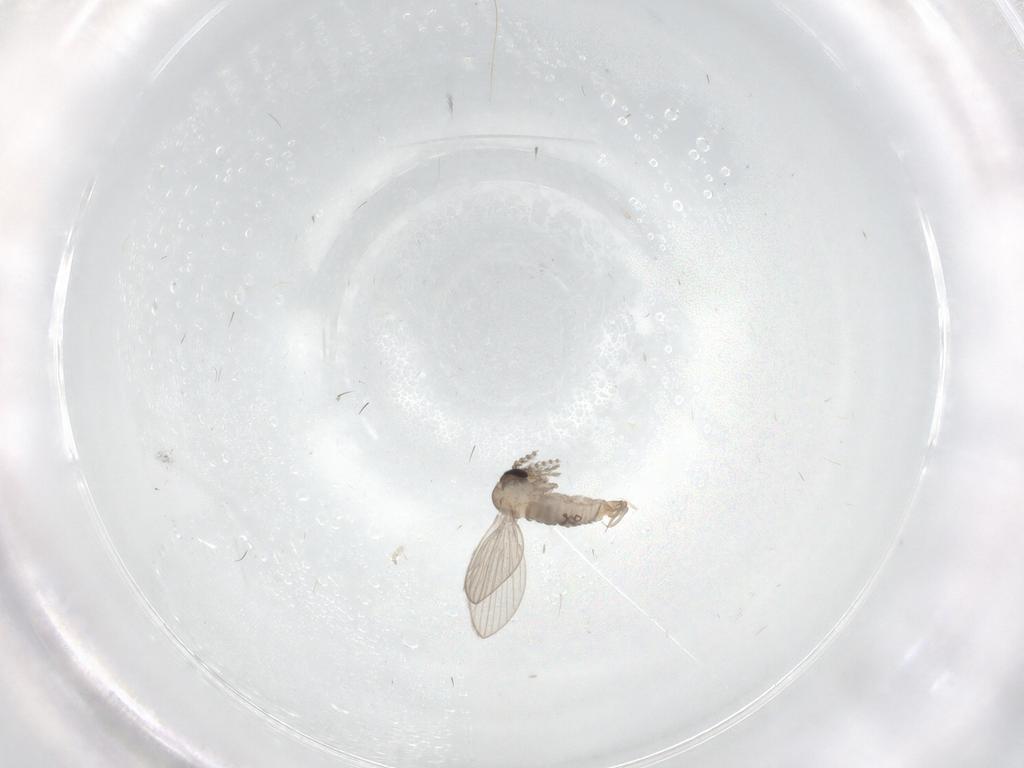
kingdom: Animalia
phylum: Arthropoda
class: Insecta
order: Diptera
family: Psychodidae
